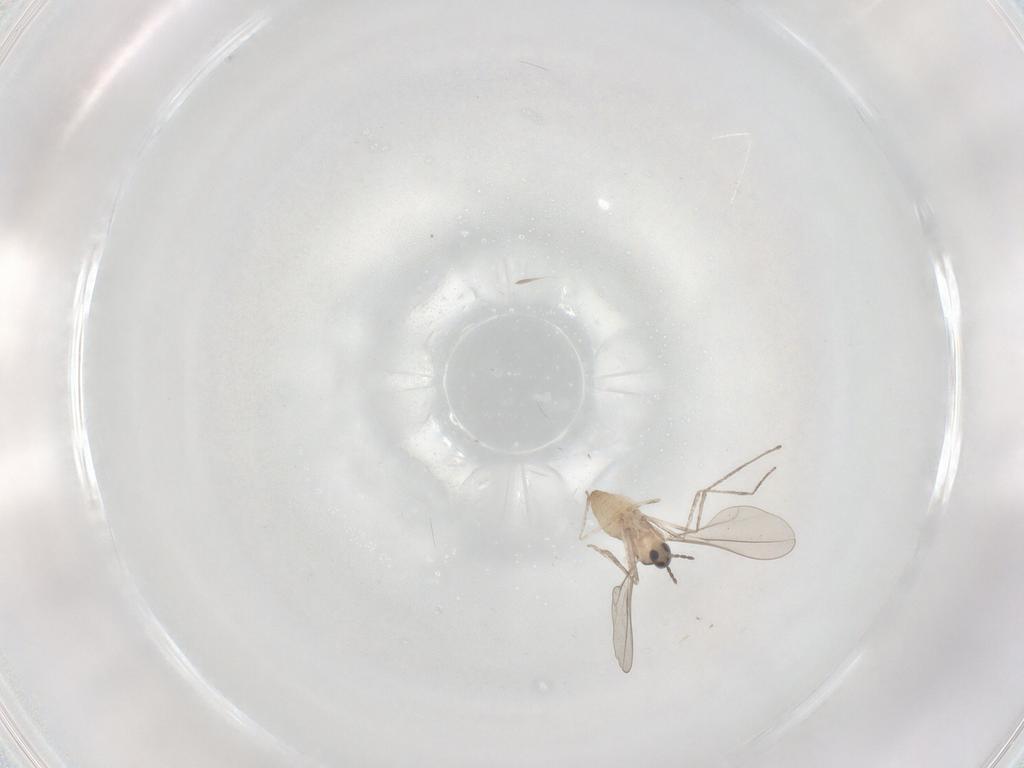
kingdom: Animalia
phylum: Arthropoda
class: Insecta
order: Diptera
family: Cecidomyiidae
